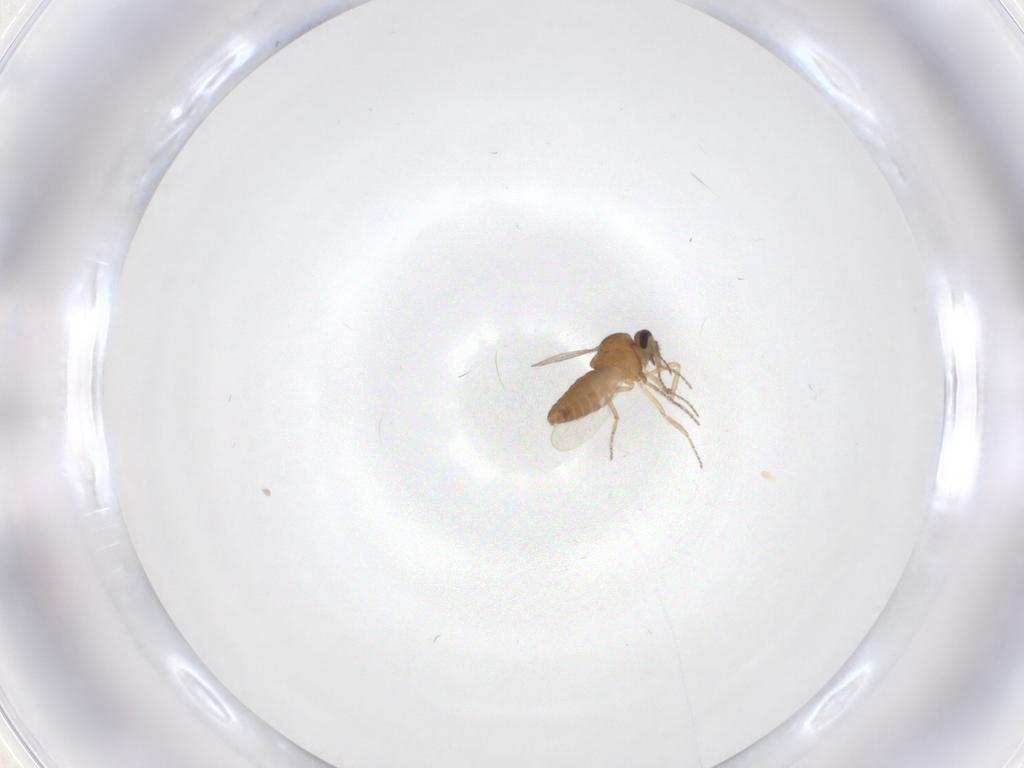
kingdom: Animalia
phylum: Arthropoda
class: Insecta
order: Diptera
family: Ceratopogonidae
